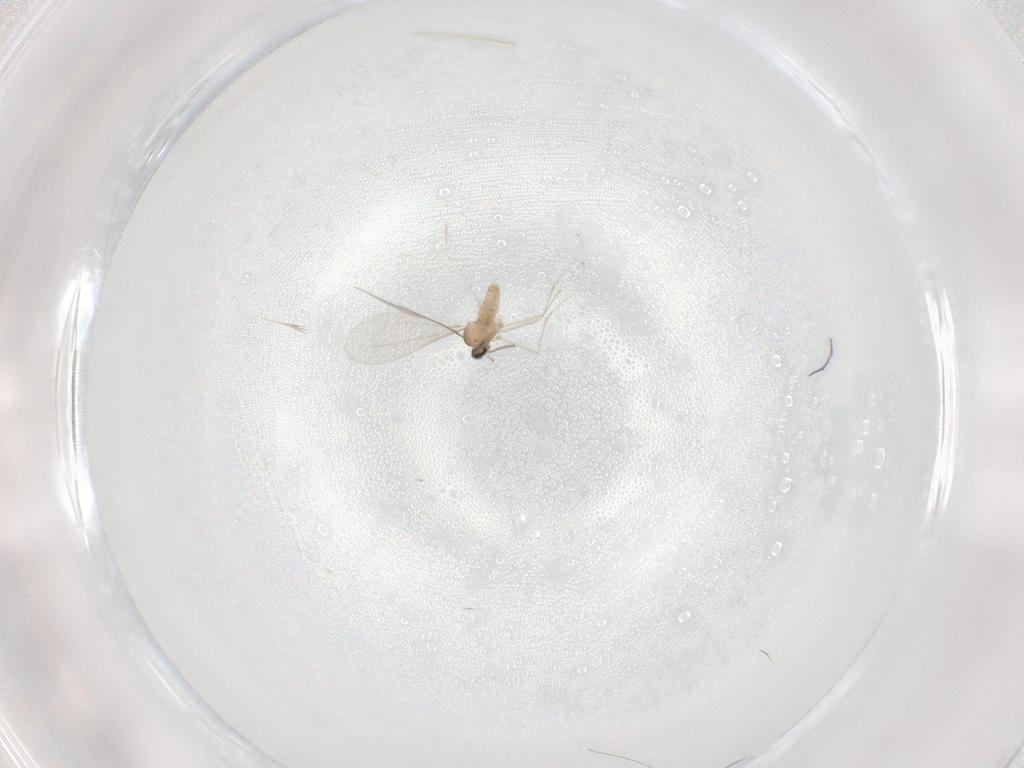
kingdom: Animalia
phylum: Arthropoda
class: Insecta
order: Diptera
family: Cecidomyiidae
